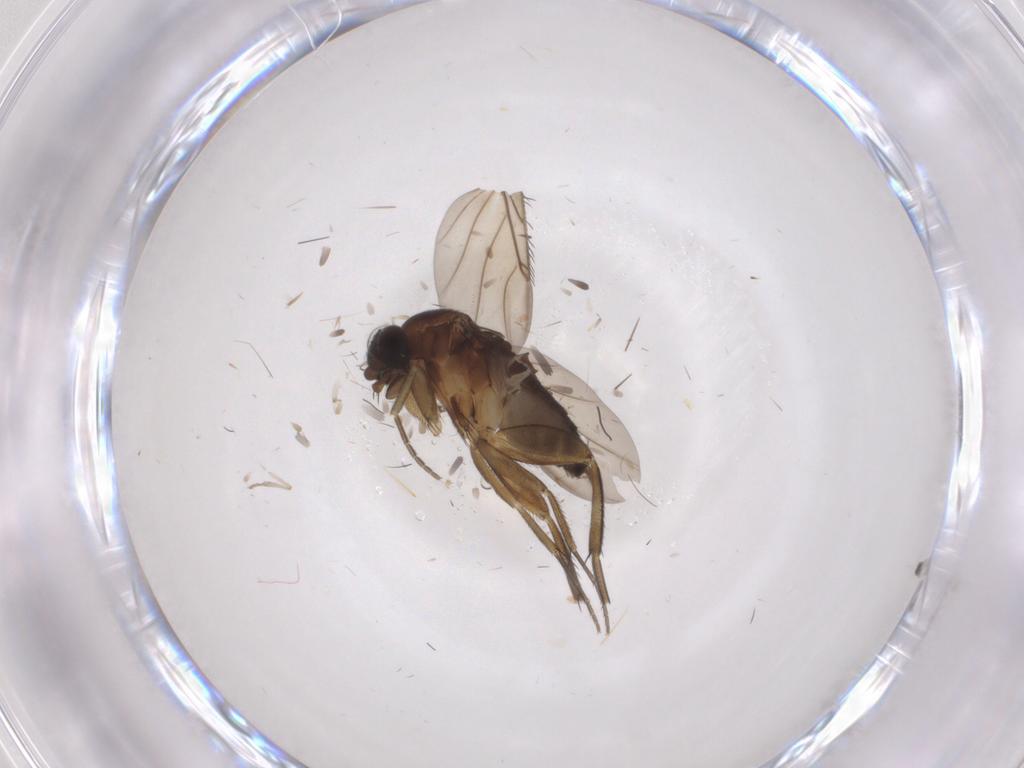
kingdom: Animalia
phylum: Arthropoda
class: Insecta
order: Diptera
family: Phoridae
